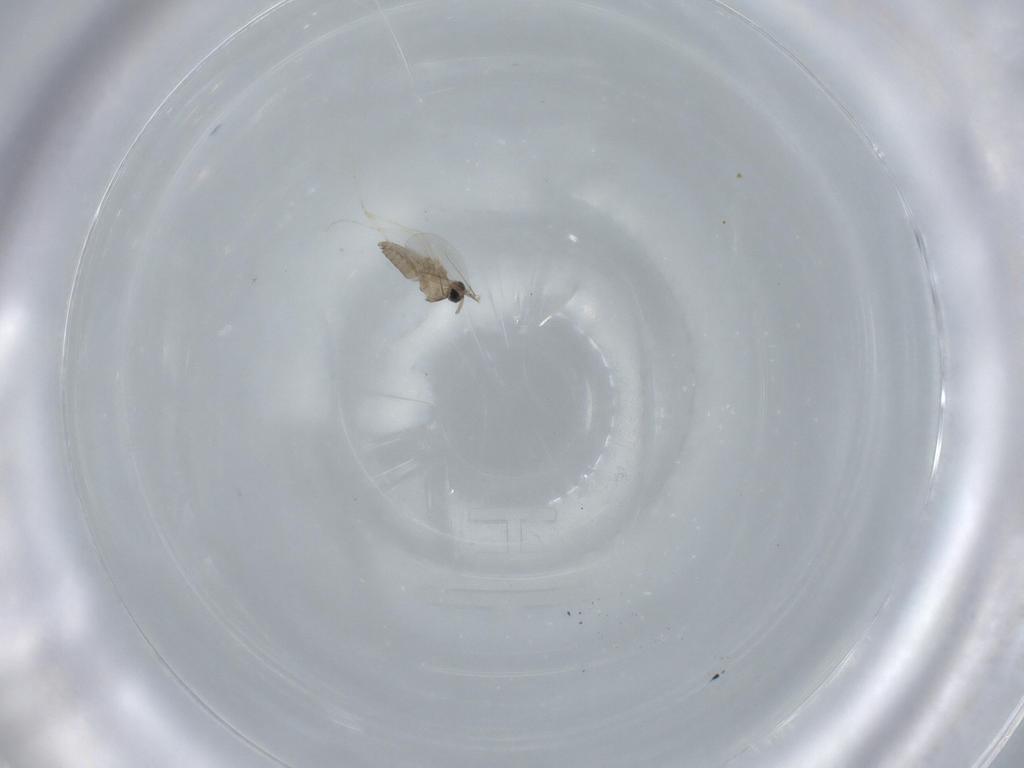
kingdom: Animalia
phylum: Arthropoda
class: Insecta
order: Diptera
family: Cecidomyiidae
